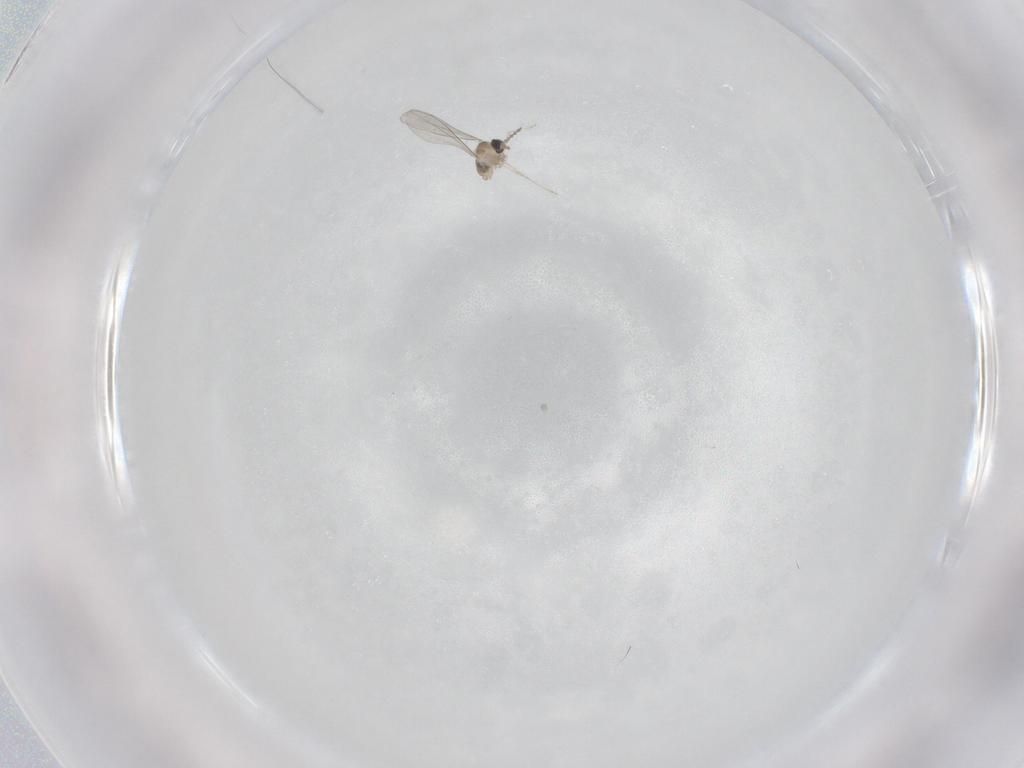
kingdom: Animalia
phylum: Arthropoda
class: Insecta
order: Diptera
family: Cecidomyiidae
